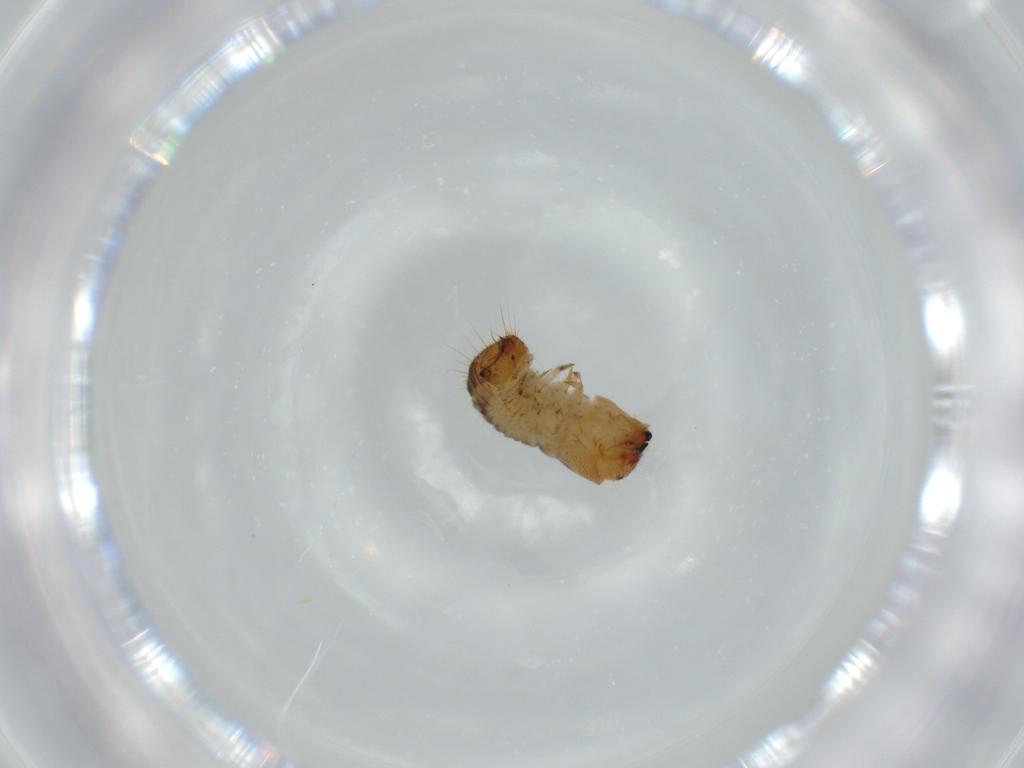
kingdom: Animalia
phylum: Arthropoda
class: Insecta
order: Coleoptera
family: Lymexylidae
